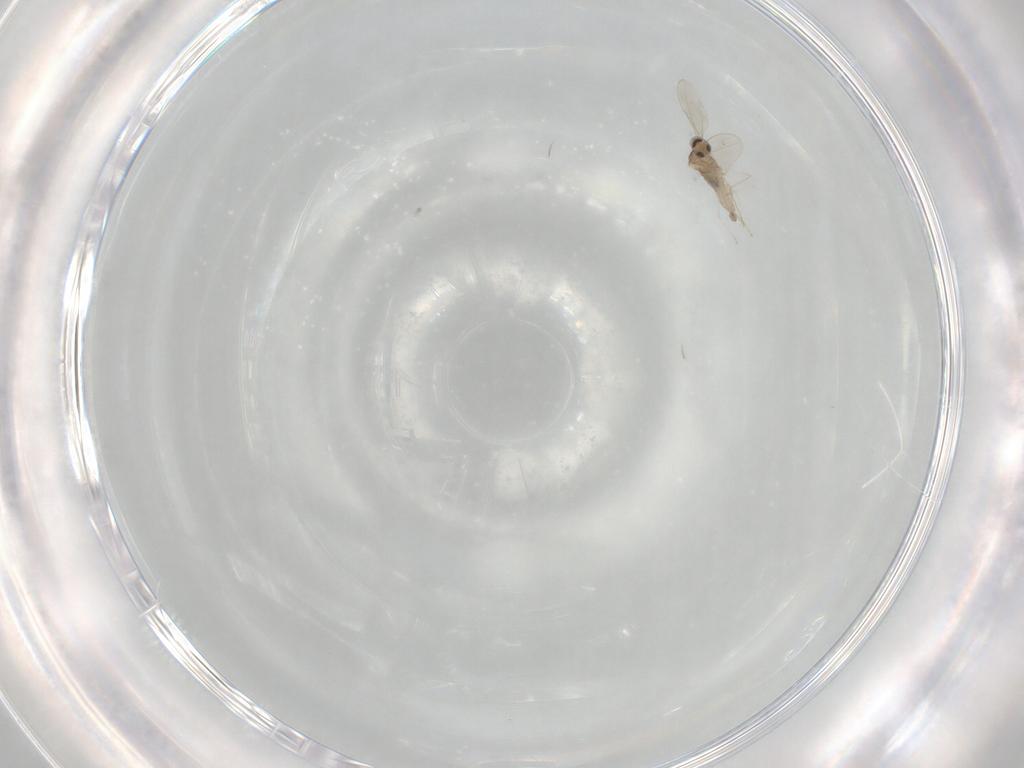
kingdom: Animalia
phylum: Arthropoda
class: Insecta
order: Diptera
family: Cecidomyiidae
